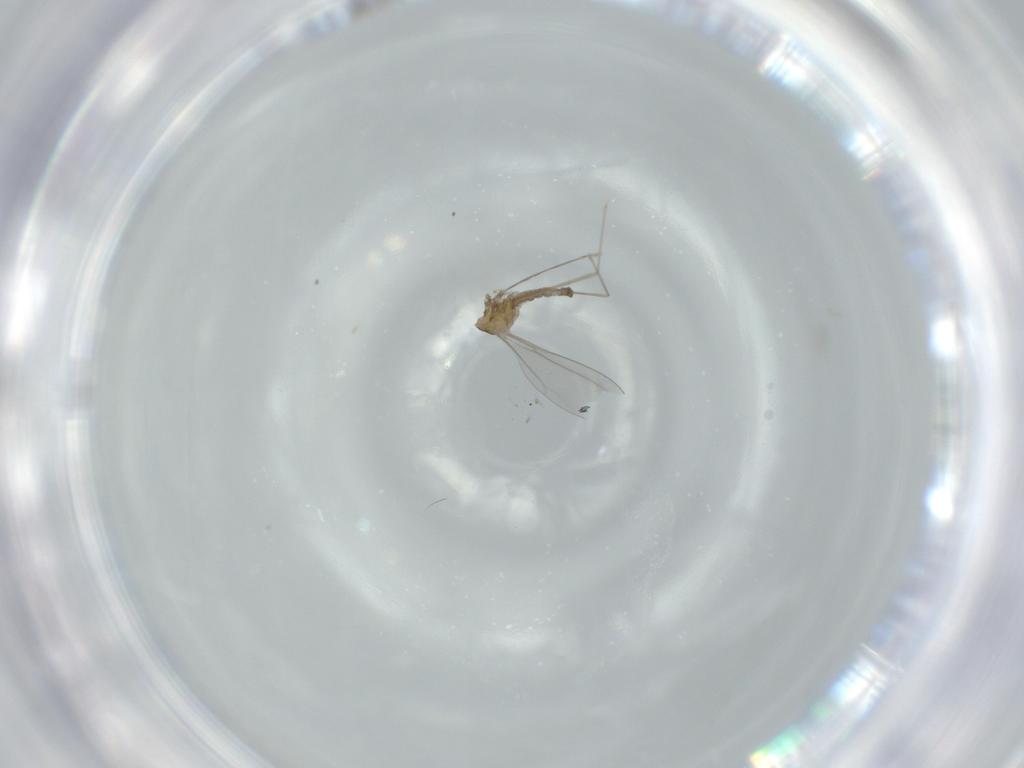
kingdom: Animalia
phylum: Arthropoda
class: Insecta
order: Diptera
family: Cecidomyiidae
